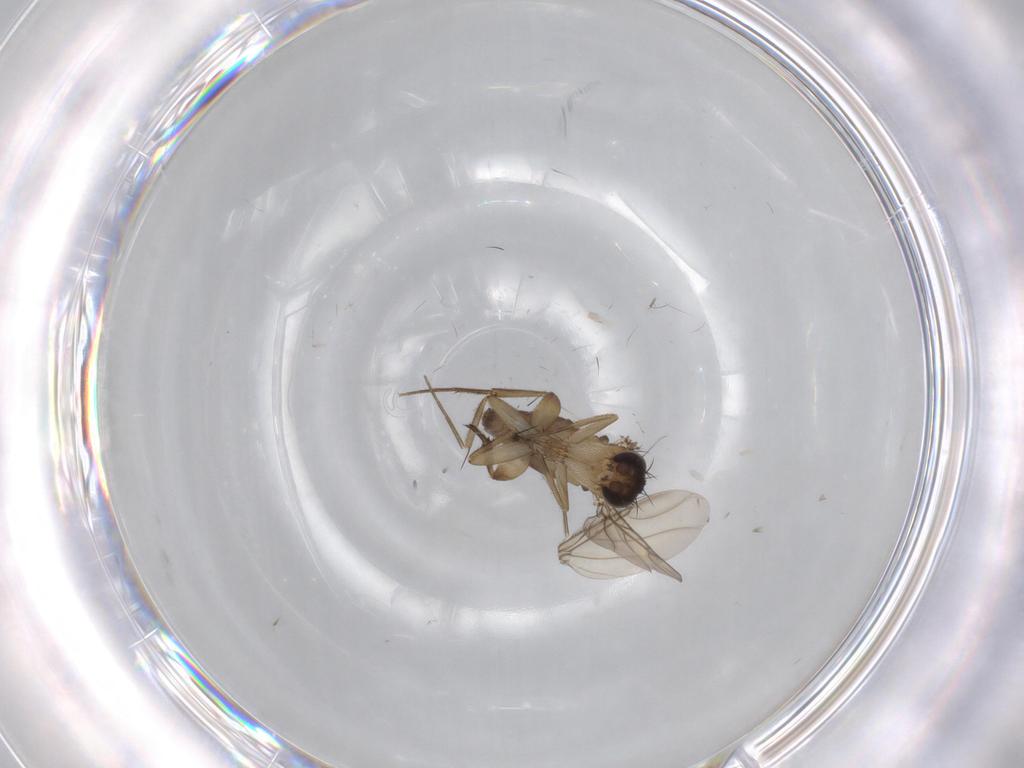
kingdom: Animalia
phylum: Arthropoda
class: Insecta
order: Diptera
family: Phoridae
